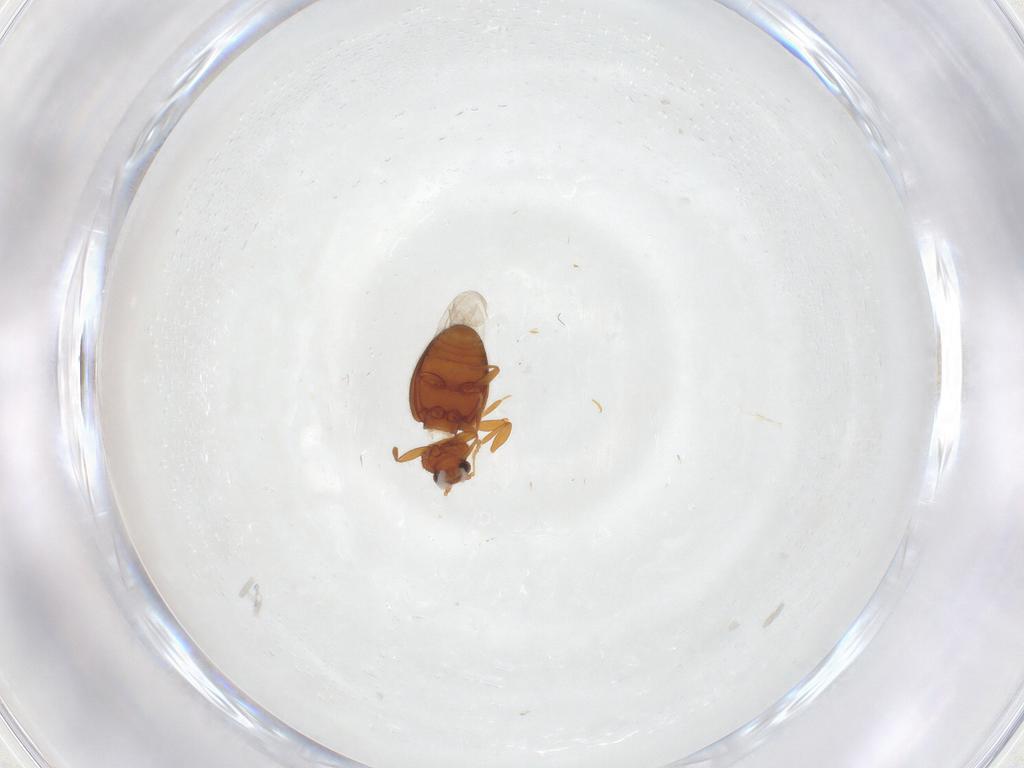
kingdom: Animalia
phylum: Arthropoda
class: Insecta
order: Coleoptera
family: Latridiidae
